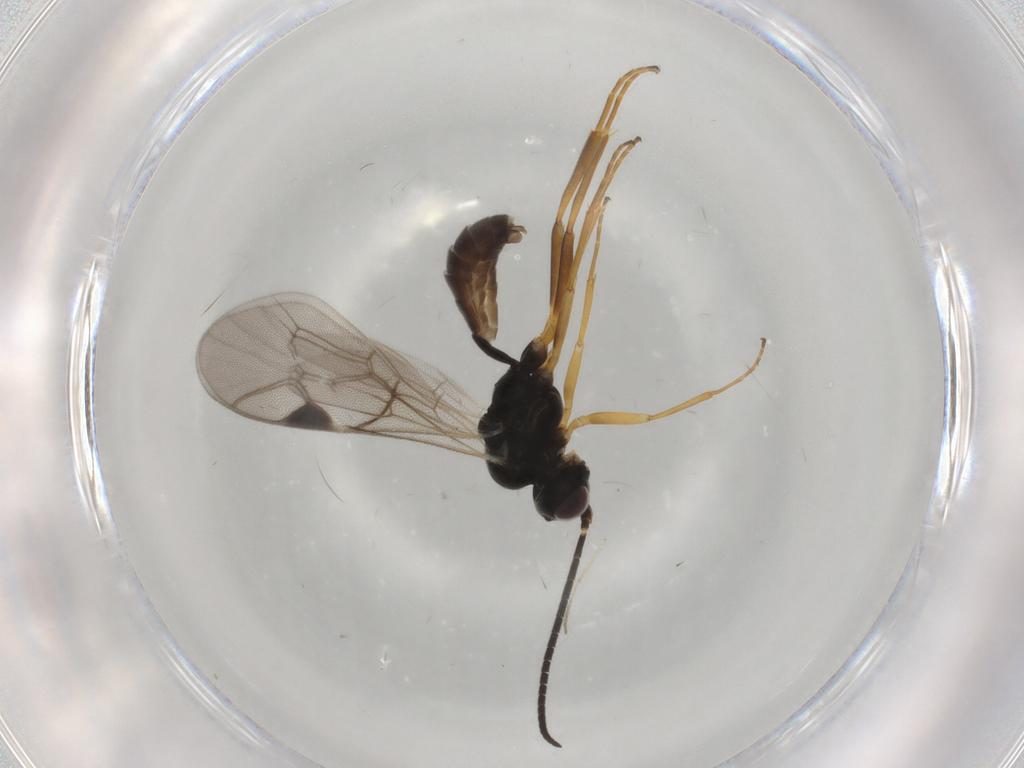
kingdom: Animalia
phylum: Arthropoda
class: Insecta
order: Hymenoptera
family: Ichneumonidae
